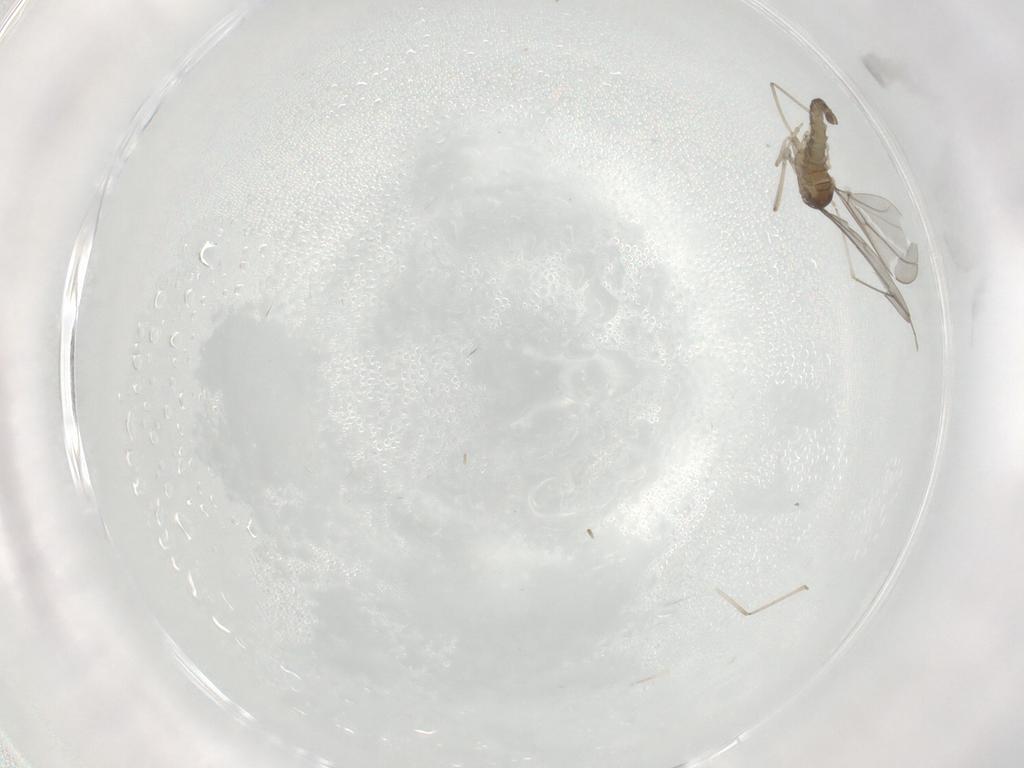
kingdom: Animalia
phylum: Arthropoda
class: Insecta
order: Diptera
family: Cecidomyiidae
